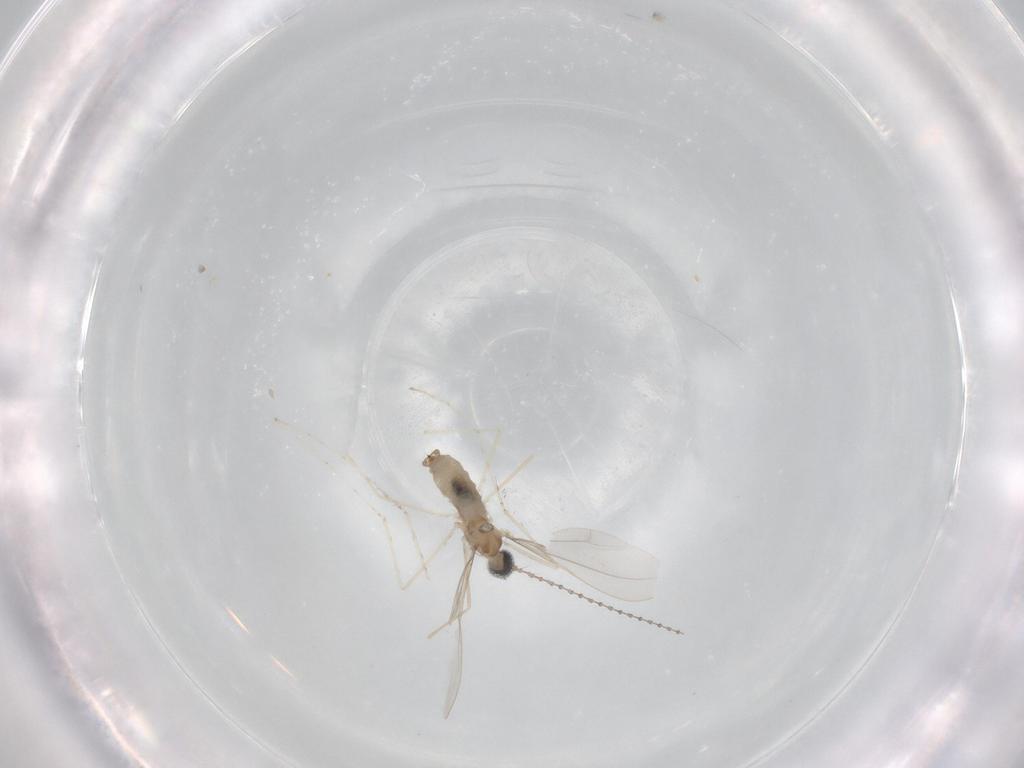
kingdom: Animalia
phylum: Arthropoda
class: Insecta
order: Diptera
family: Cecidomyiidae
